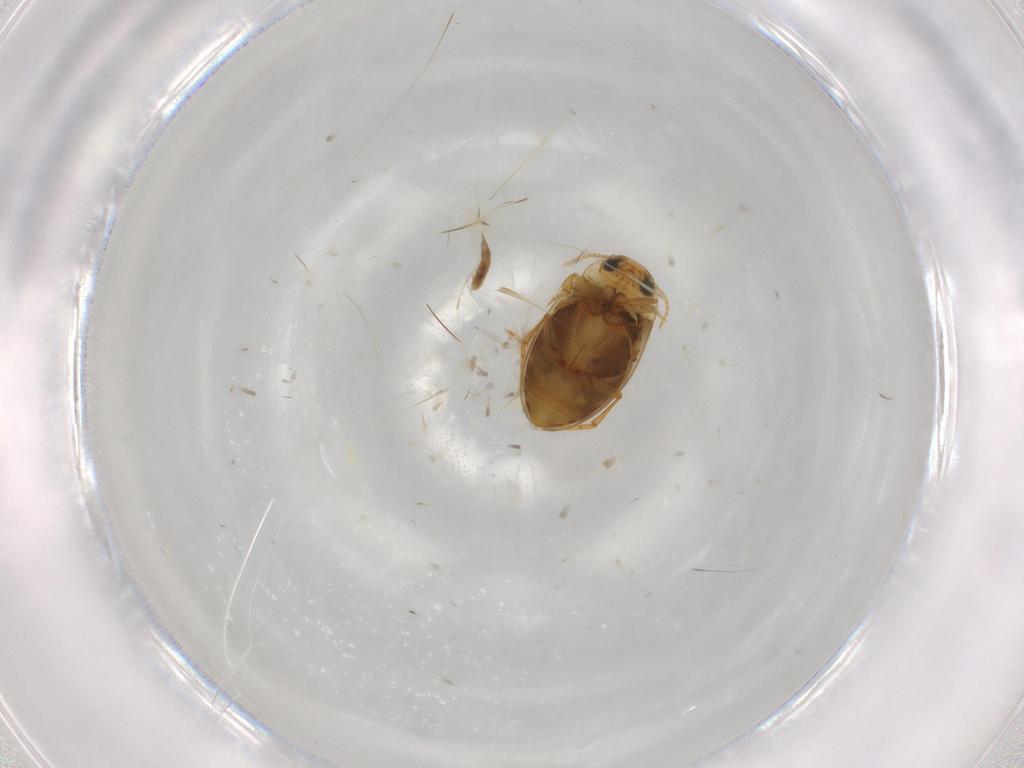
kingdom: Animalia
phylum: Arthropoda
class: Insecta
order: Coleoptera
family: Dytiscidae
